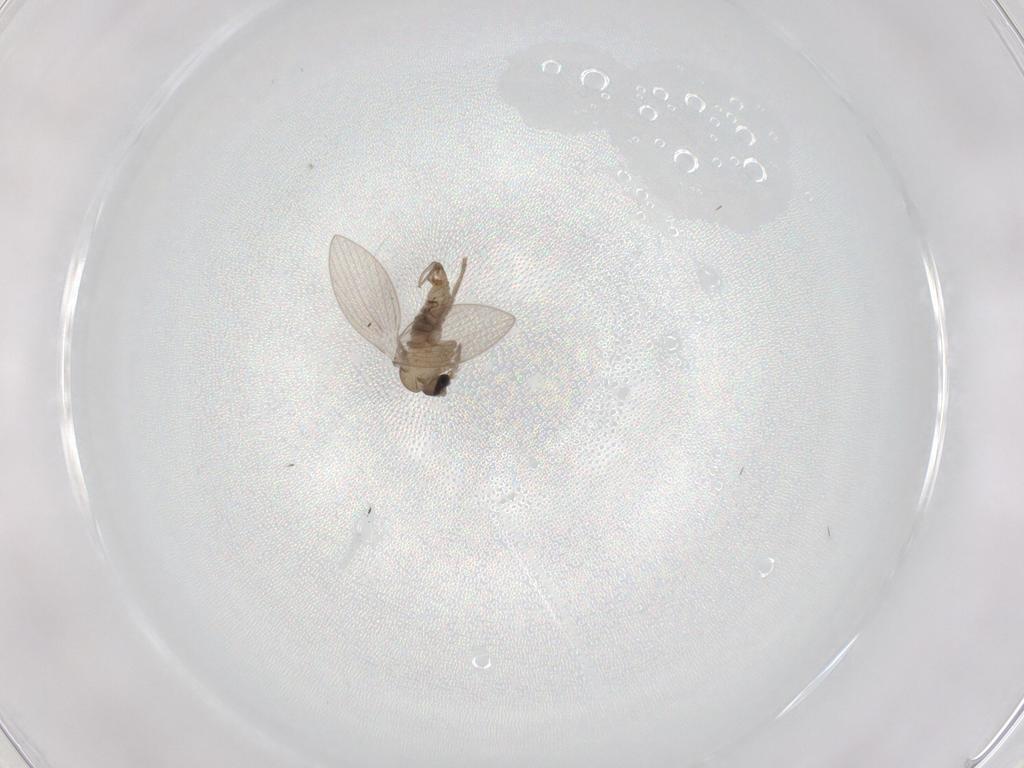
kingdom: Animalia
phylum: Arthropoda
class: Insecta
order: Diptera
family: Psychodidae
